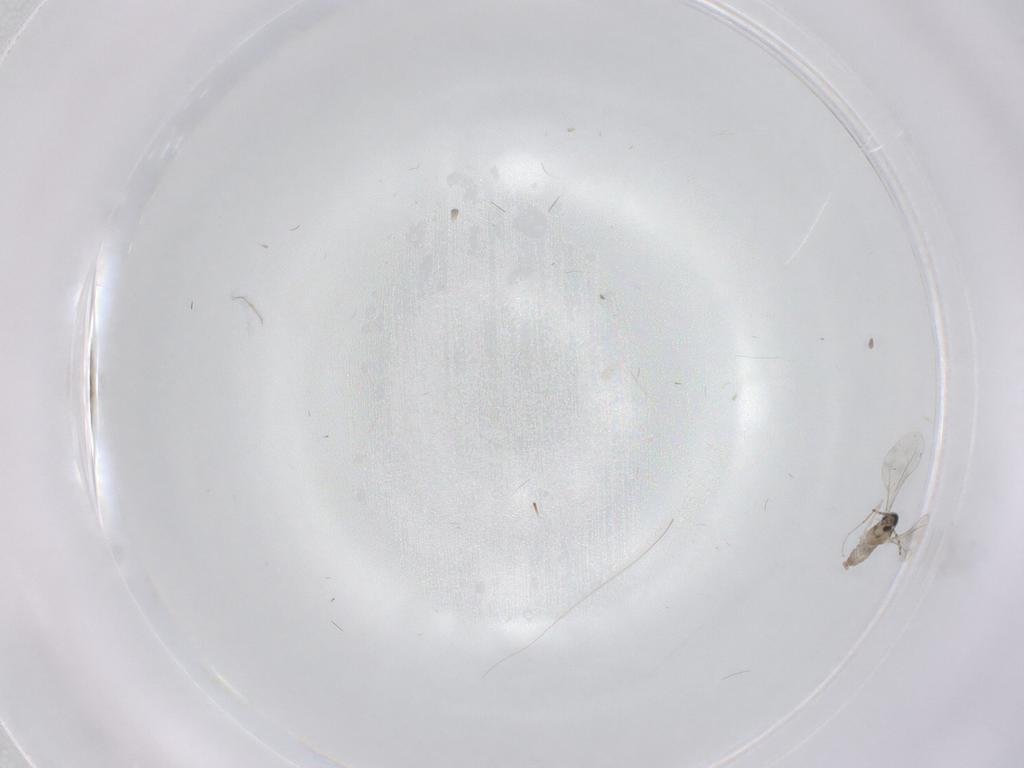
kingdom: Animalia
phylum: Arthropoda
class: Insecta
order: Diptera
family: Cecidomyiidae
